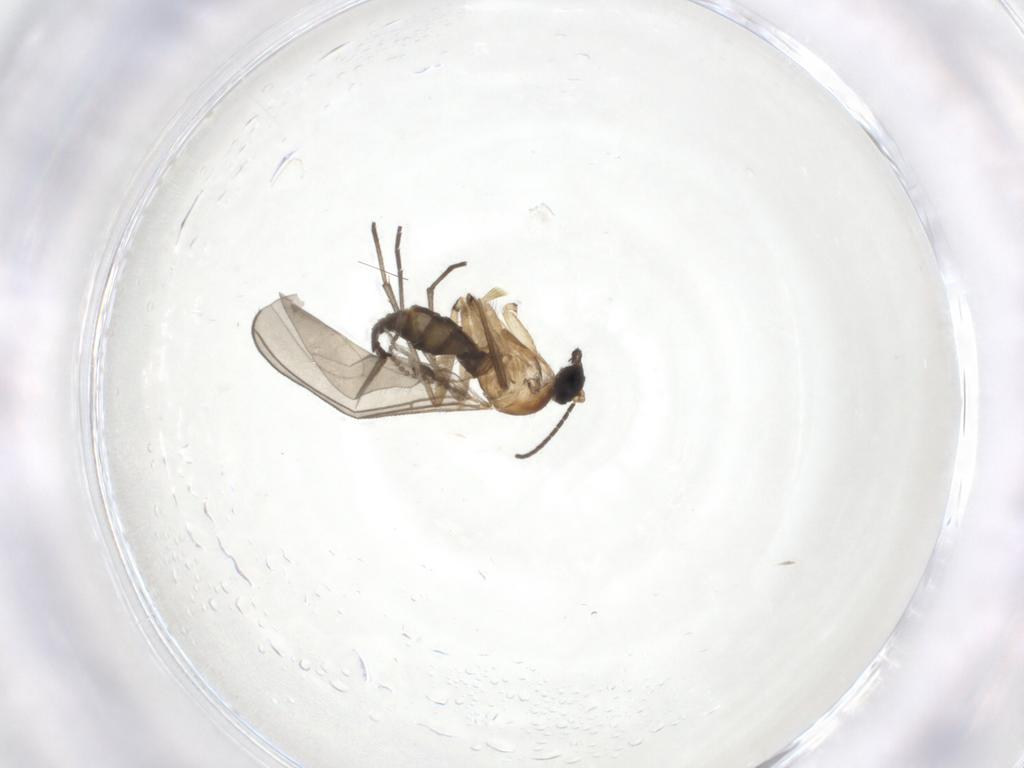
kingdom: Animalia
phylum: Arthropoda
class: Insecta
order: Diptera
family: Sciaridae
